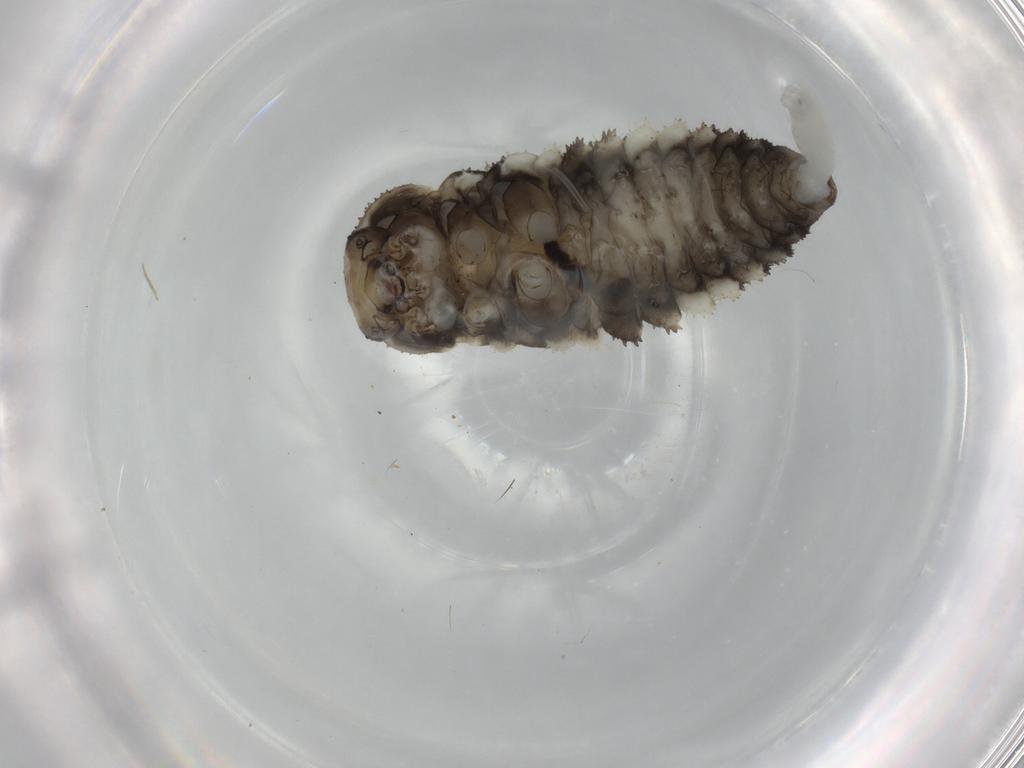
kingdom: Animalia
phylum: Arthropoda
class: Insecta
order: Coleoptera
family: Coccinellidae
